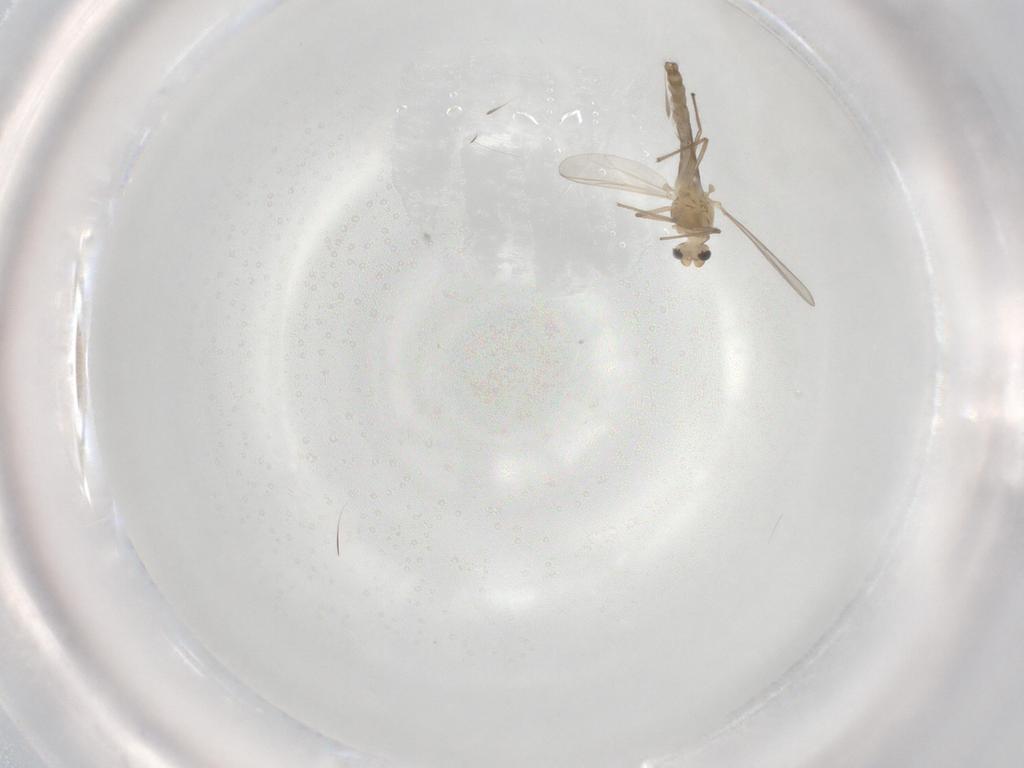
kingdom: Animalia
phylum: Arthropoda
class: Insecta
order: Diptera
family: Chironomidae
